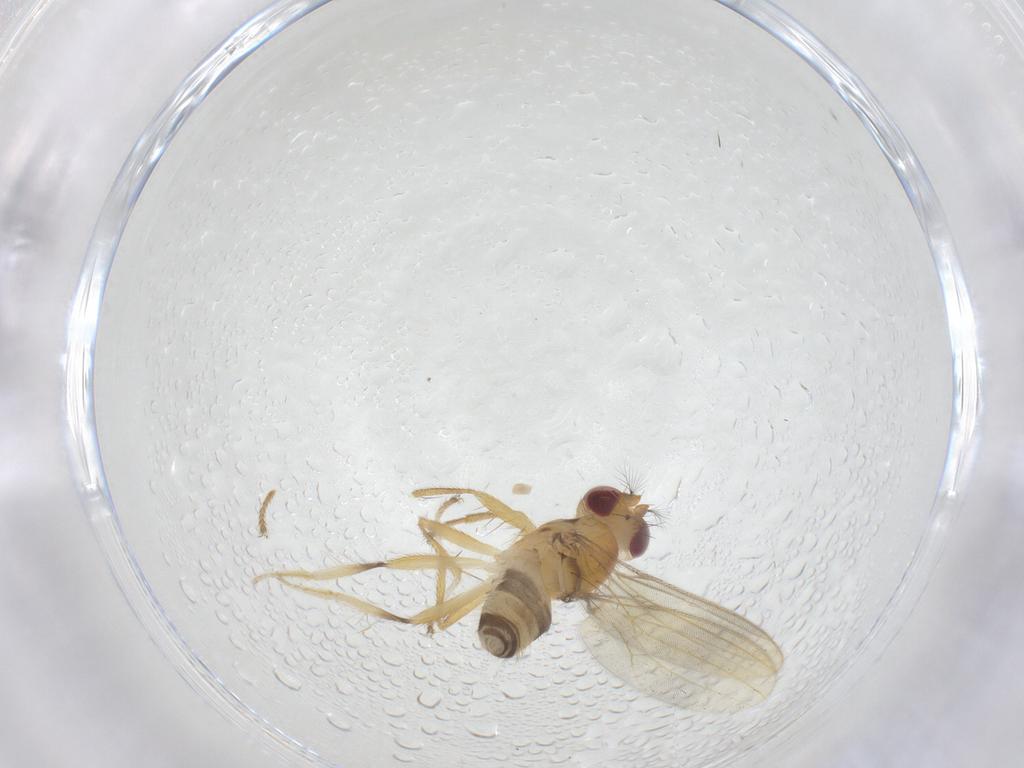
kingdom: Animalia
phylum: Arthropoda
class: Insecta
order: Diptera
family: Periscelididae
